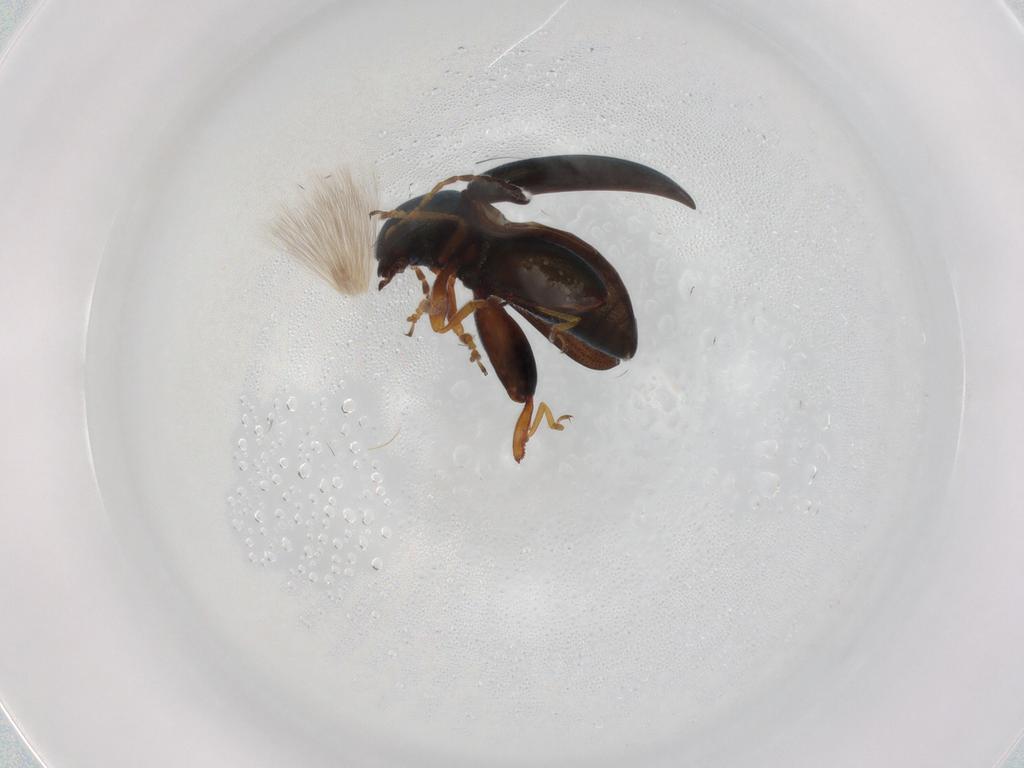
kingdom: Animalia
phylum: Arthropoda
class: Insecta
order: Coleoptera
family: Chrysomelidae
